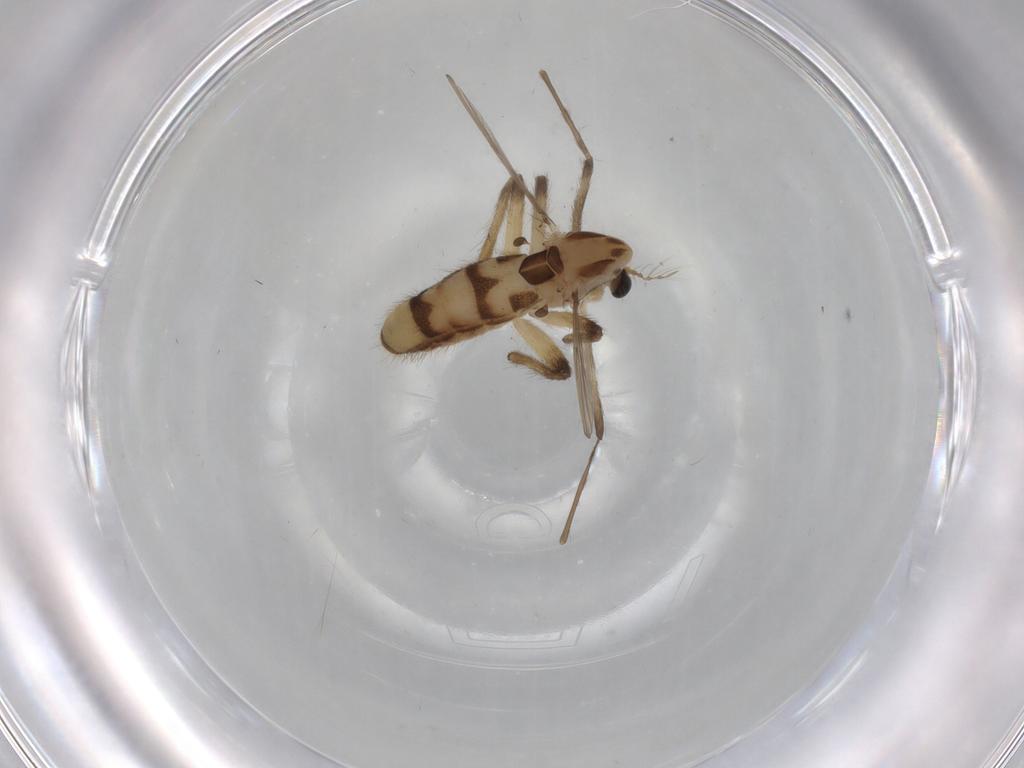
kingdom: Animalia
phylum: Arthropoda
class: Insecta
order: Diptera
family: Chironomidae
